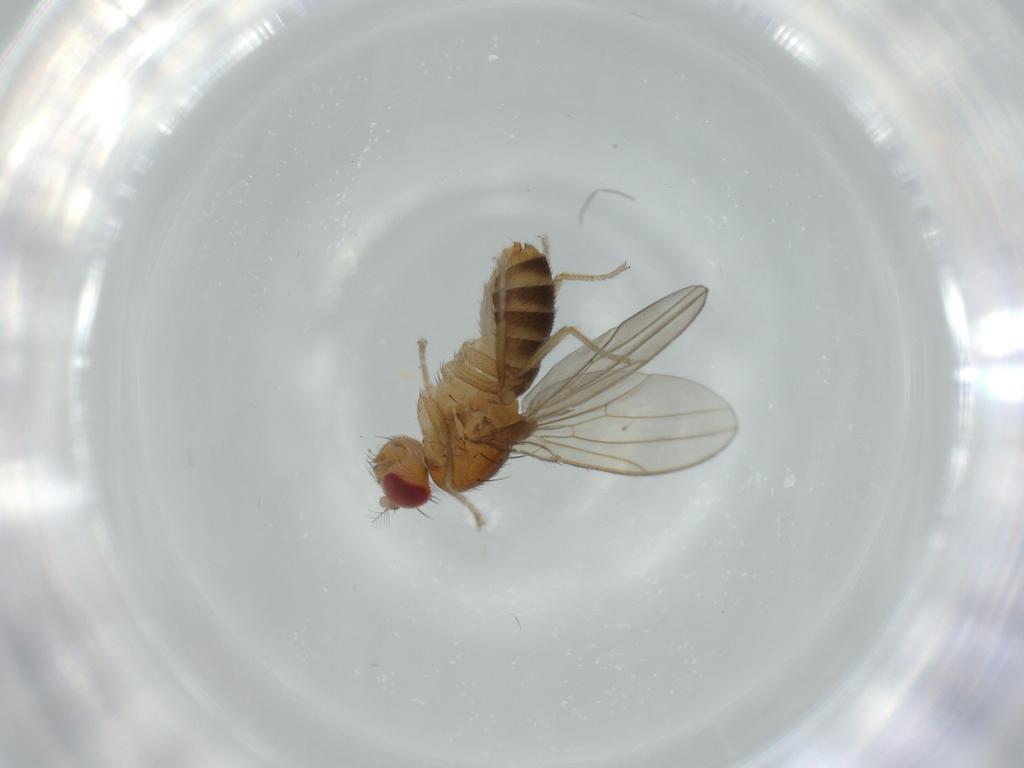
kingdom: Animalia
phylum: Arthropoda
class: Insecta
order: Diptera
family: Drosophilidae
